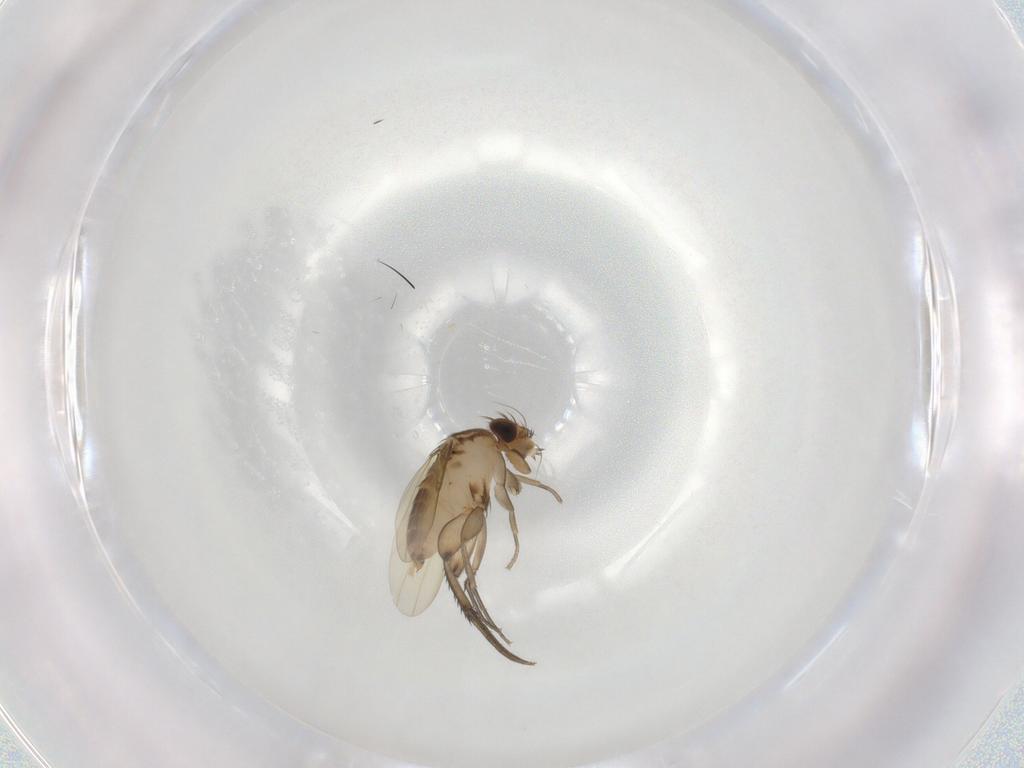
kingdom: Animalia
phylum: Arthropoda
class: Insecta
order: Diptera
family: Phoridae
